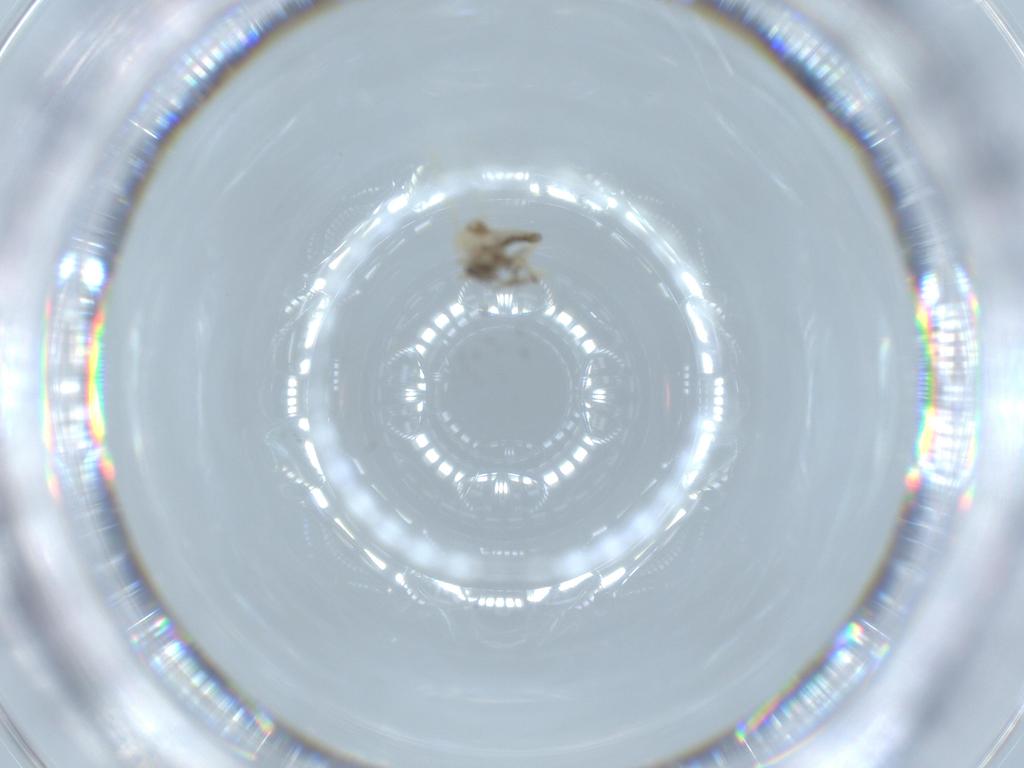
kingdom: Animalia
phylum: Arthropoda
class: Insecta
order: Diptera
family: Ceratopogonidae
